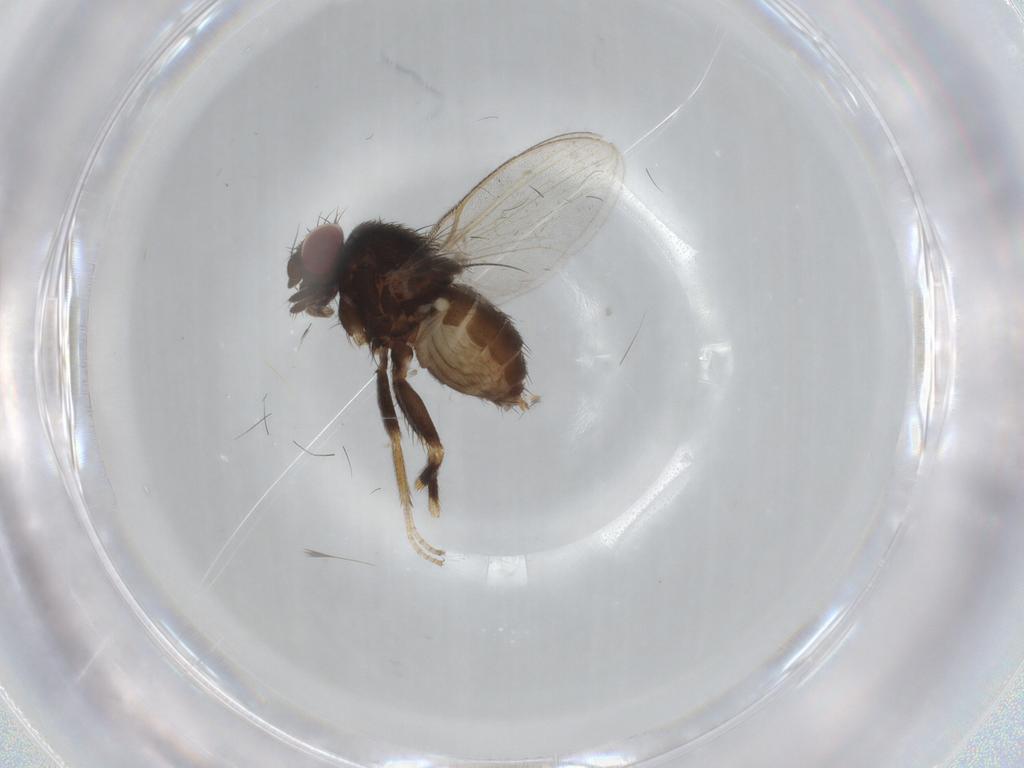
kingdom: Animalia
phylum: Arthropoda
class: Insecta
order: Diptera
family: Milichiidae
